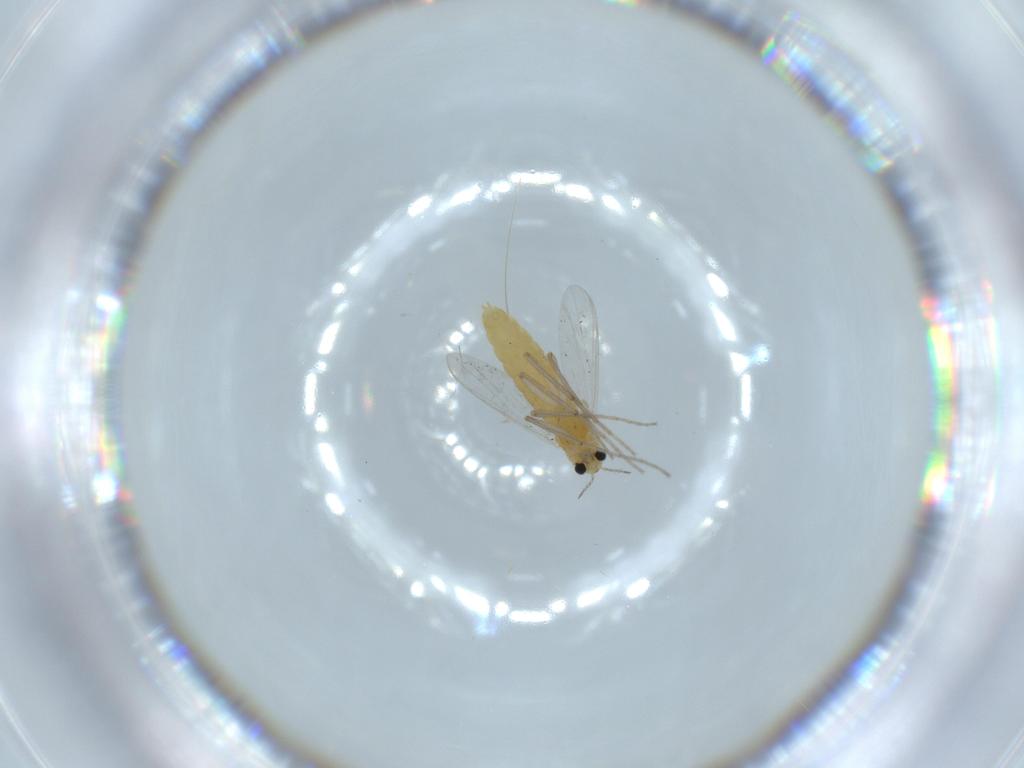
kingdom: Animalia
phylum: Arthropoda
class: Insecta
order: Diptera
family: Chironomidae
